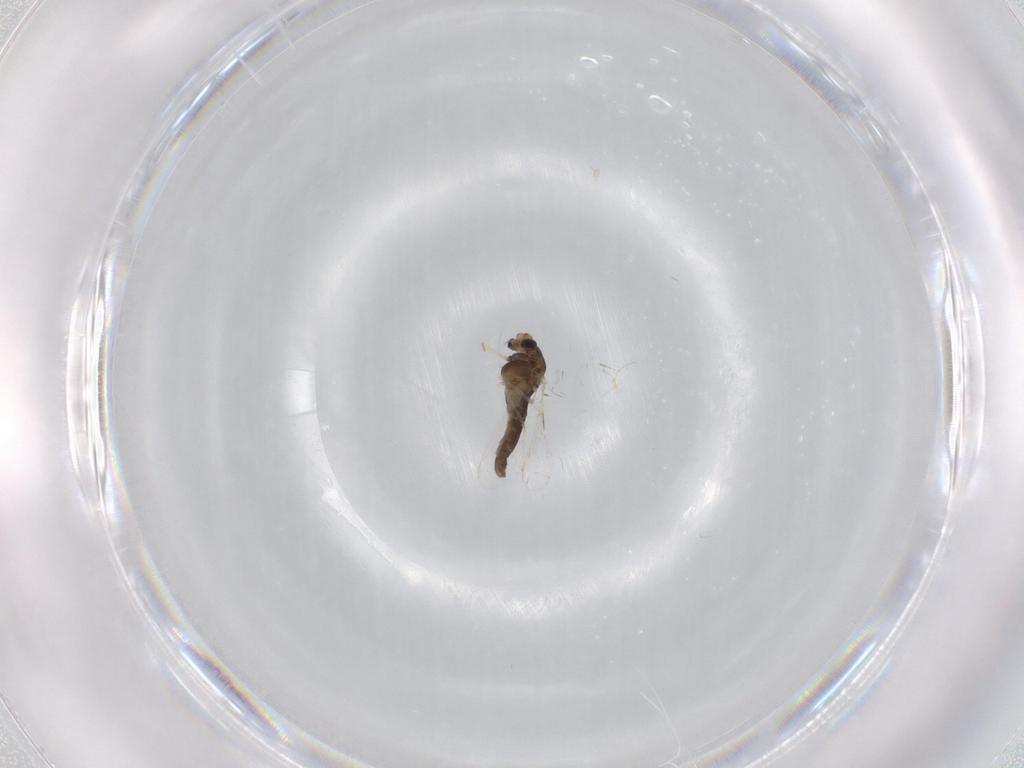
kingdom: Animalia
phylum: Arthropoda
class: Insecta
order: Diptera
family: Chironomidae
